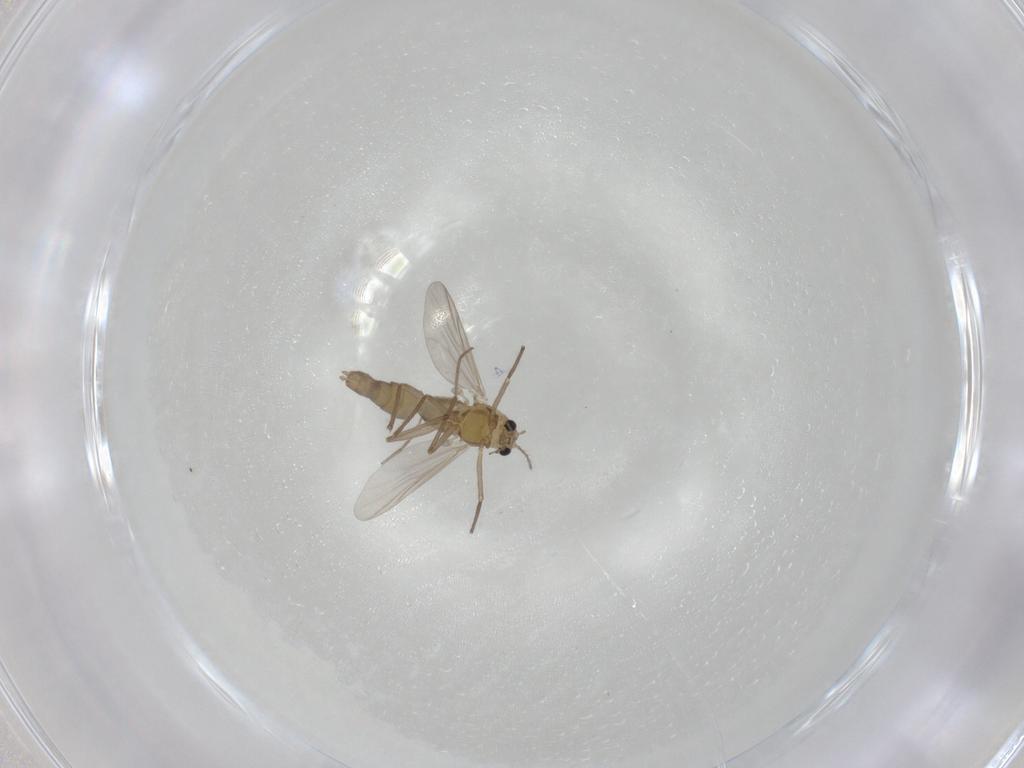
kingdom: Animalia
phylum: Arthropoda
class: Insecta
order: Diptera
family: Chironomidae
